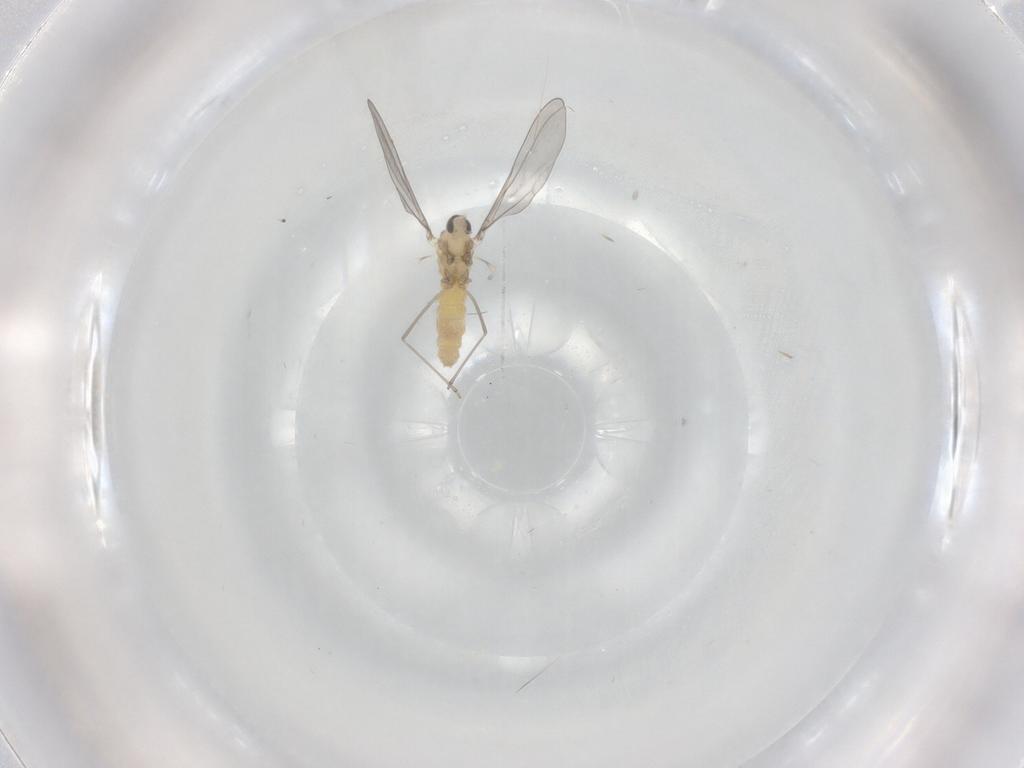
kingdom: Animalia
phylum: Arthropoda
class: Insecta
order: Diptera
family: Cecidomyiidae
